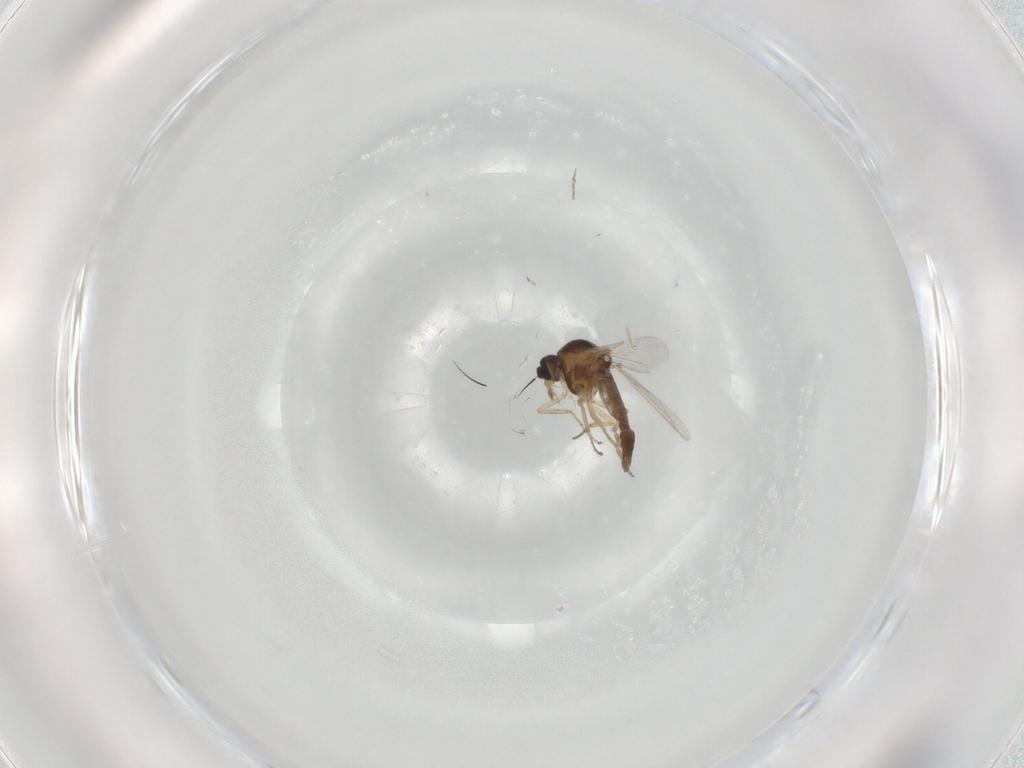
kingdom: Animalia
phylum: Arthropoda
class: Insecta
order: Diptera
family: Ceratopogonidae
